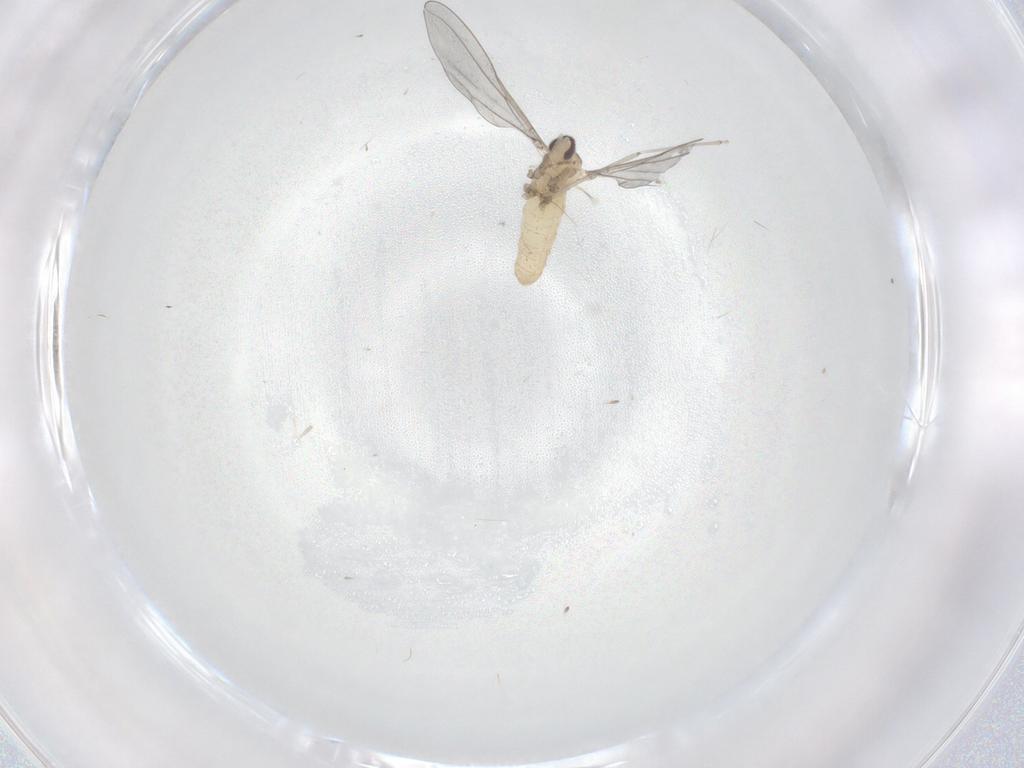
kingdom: Animalia
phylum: Arthropoda
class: Insecta
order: Diptera
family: Cecidomyiidae
